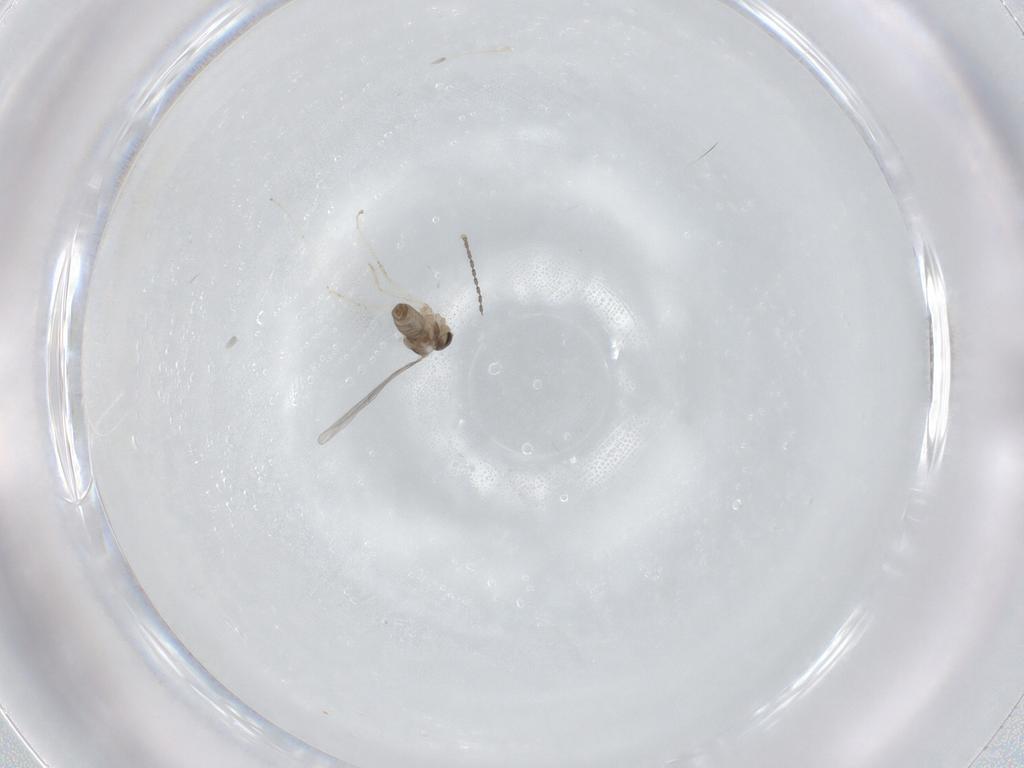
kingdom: Animalia
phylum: Arthropoda
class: Insecta
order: Diptera
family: Cecidomyiidae
